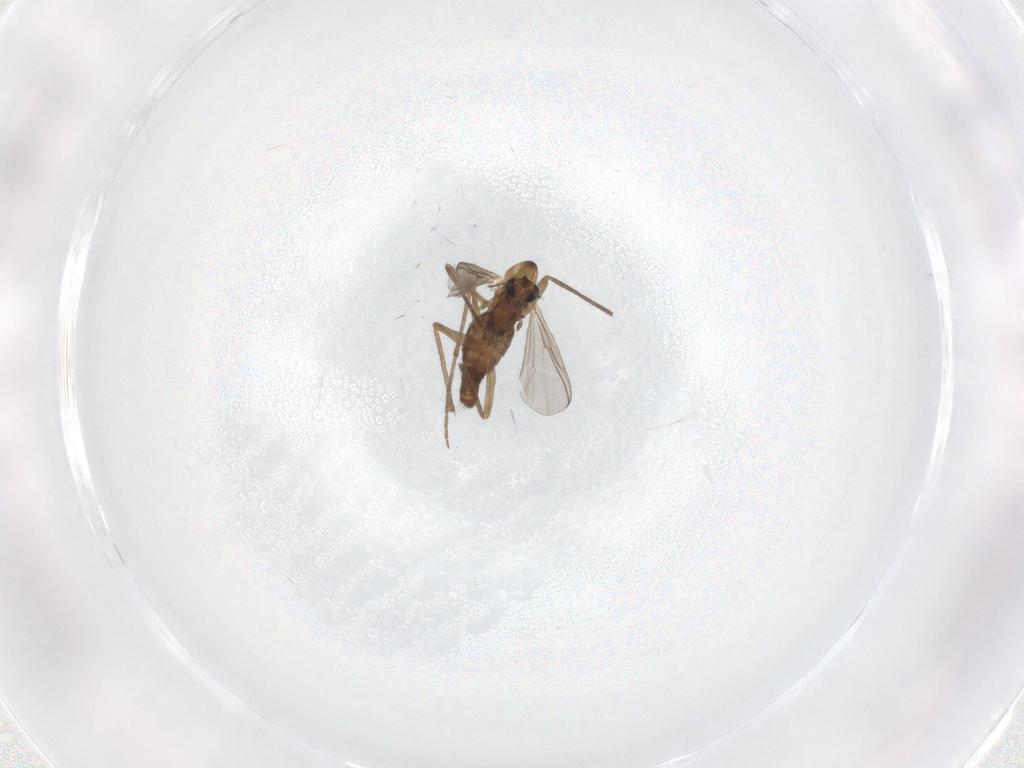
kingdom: Animalia
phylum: Arthropoda
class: Insecta
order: Diptera
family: Chironomidae
